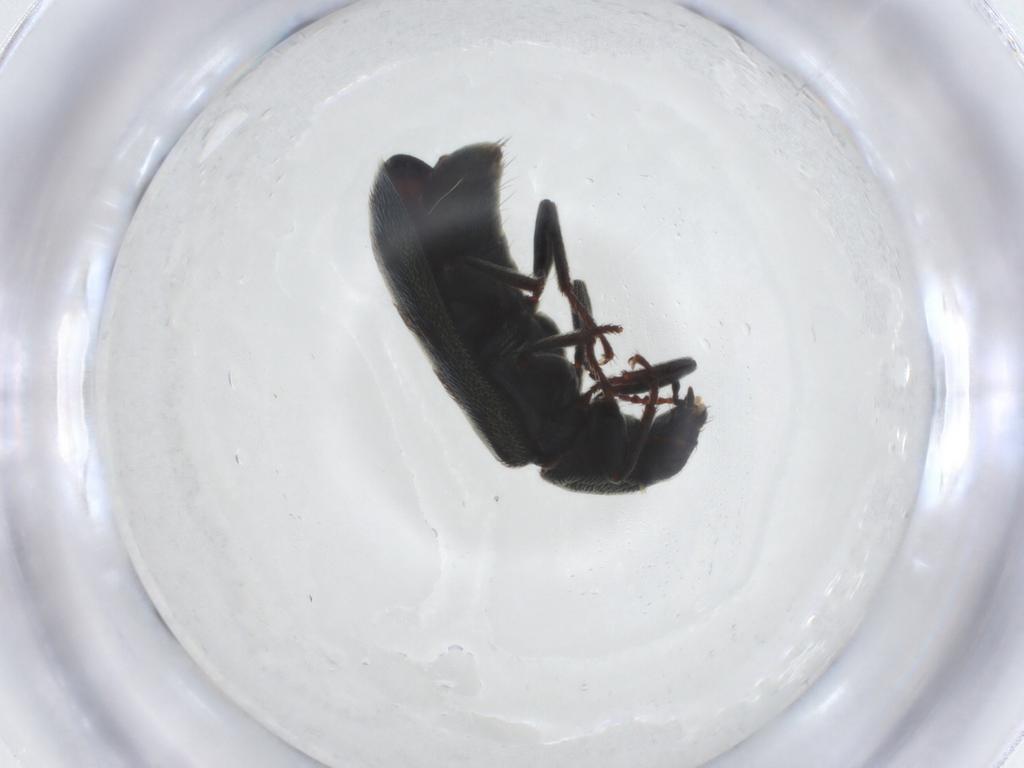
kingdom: Animalia
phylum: Arthropoda
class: Insecta
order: Coleoptera
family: Melyridae
